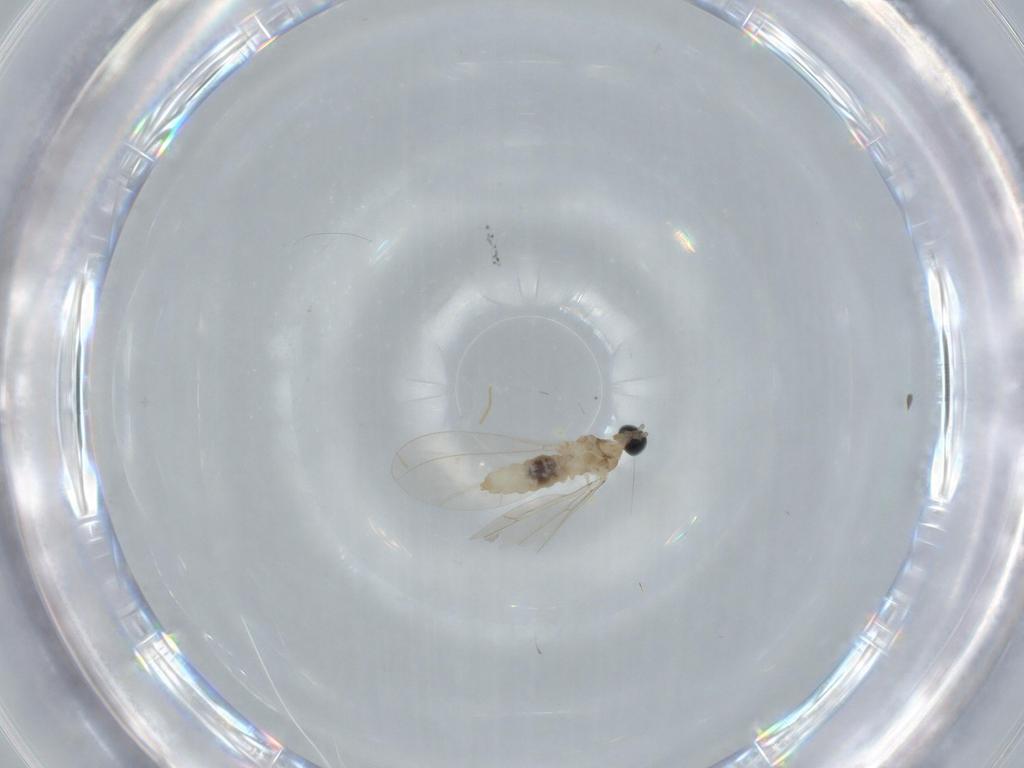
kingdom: Animalia
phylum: Arthropoda
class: Insecta
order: Diptera
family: Cecidomyiidae
